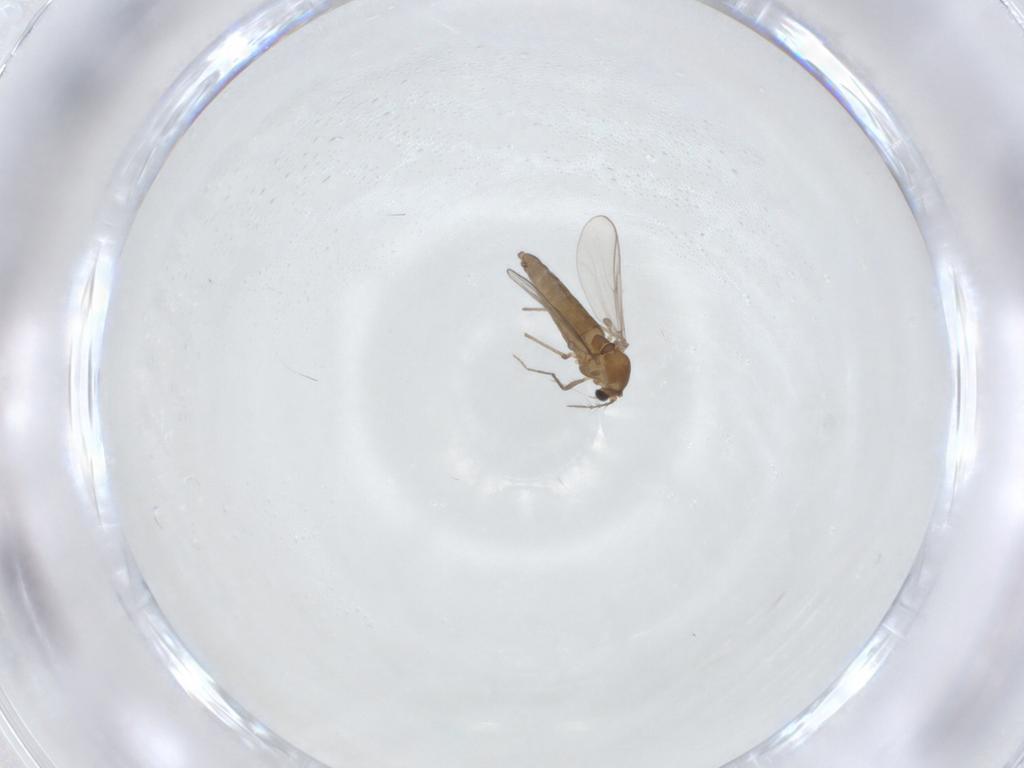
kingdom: Animalia
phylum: Arthropoda
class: Insecta
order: Diptera
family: Chironomidae
